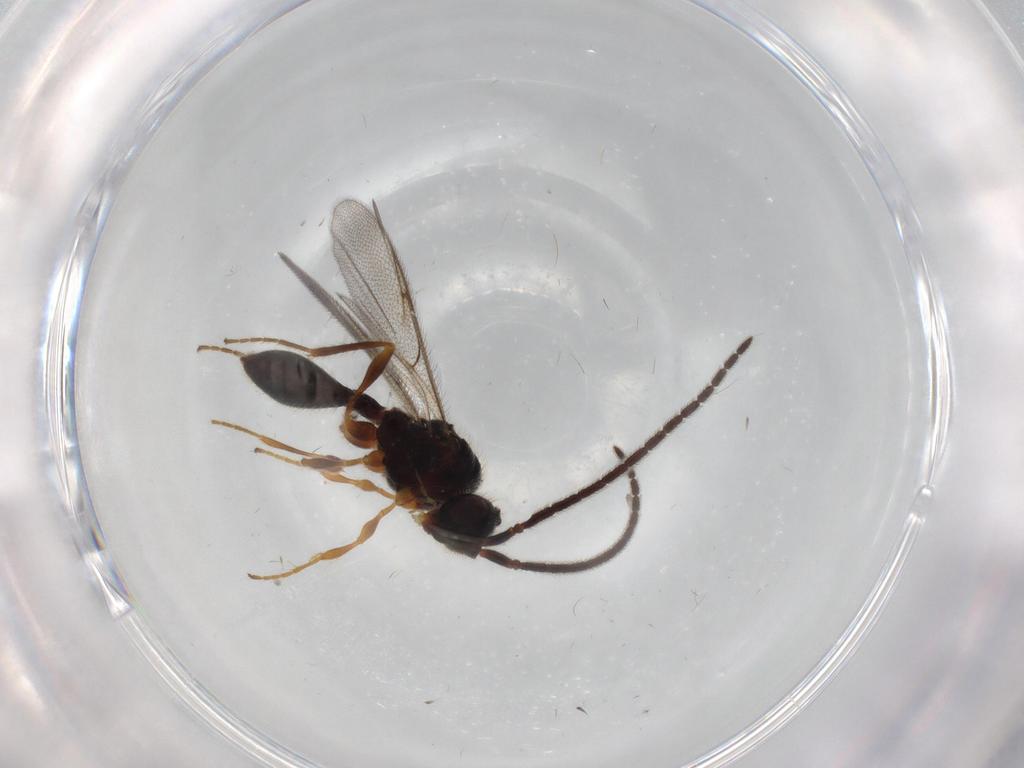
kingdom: Animalia
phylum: Arthropoda
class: Insecta
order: Hymenoptera
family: Diapriidae
